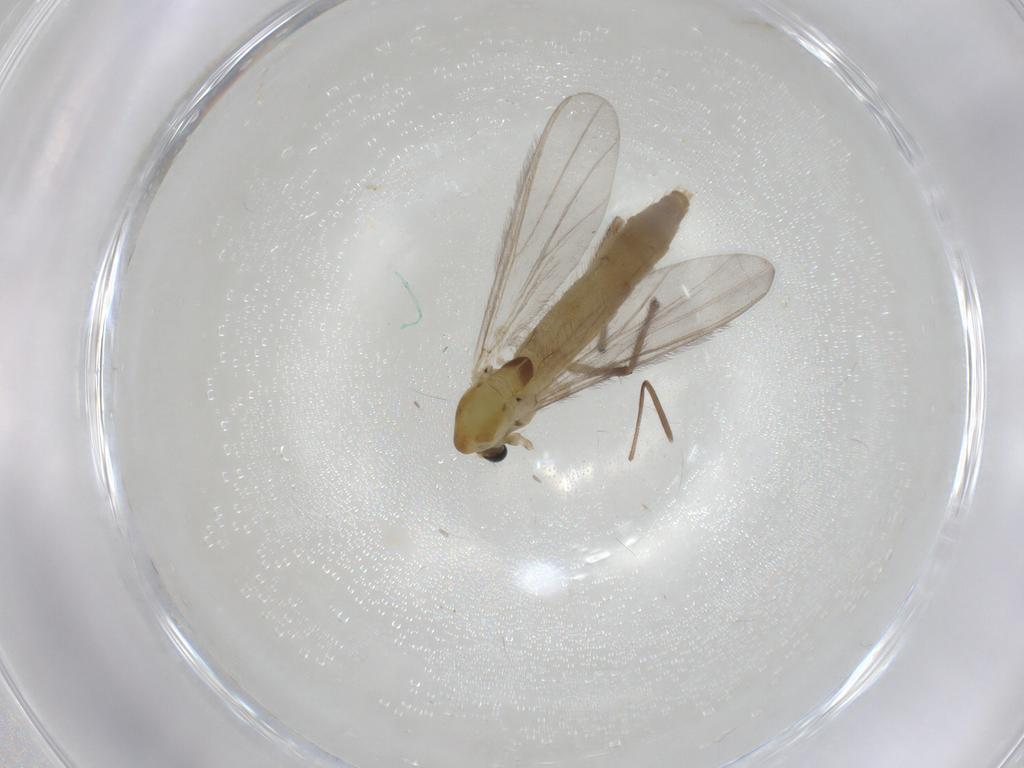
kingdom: Animalia
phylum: Arthropoda
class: Insecta
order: Diptera
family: Chironomidae
